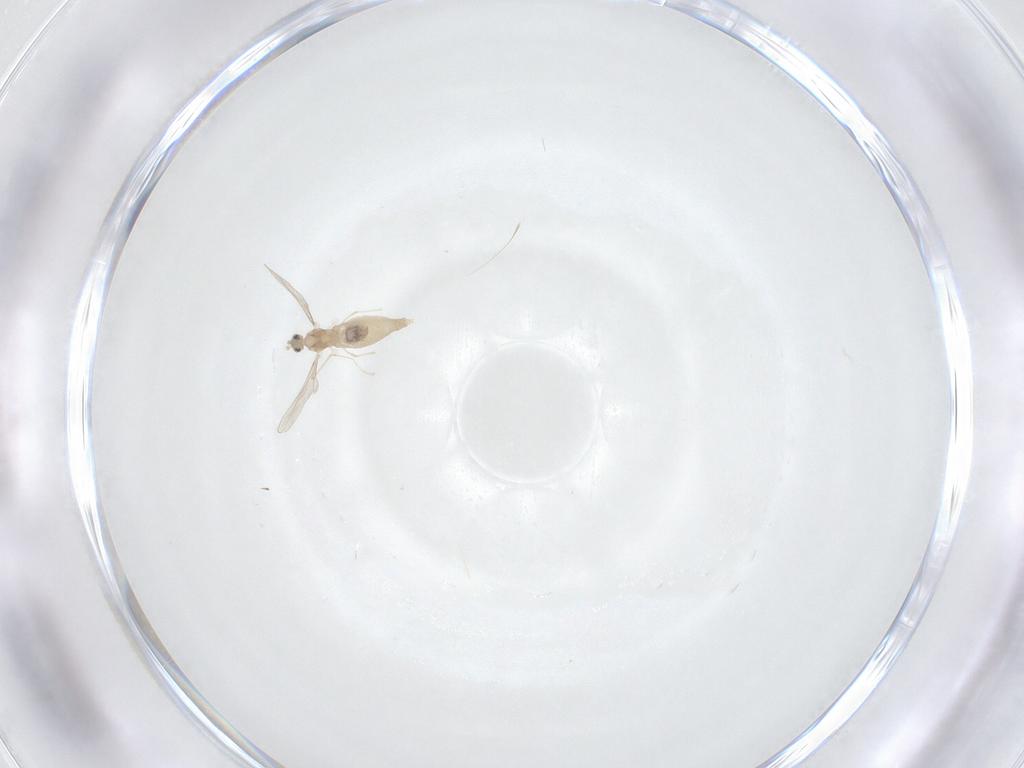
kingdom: Animalia
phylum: Arthropoda
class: Insecta
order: Diptera
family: Cecidomyiidae
